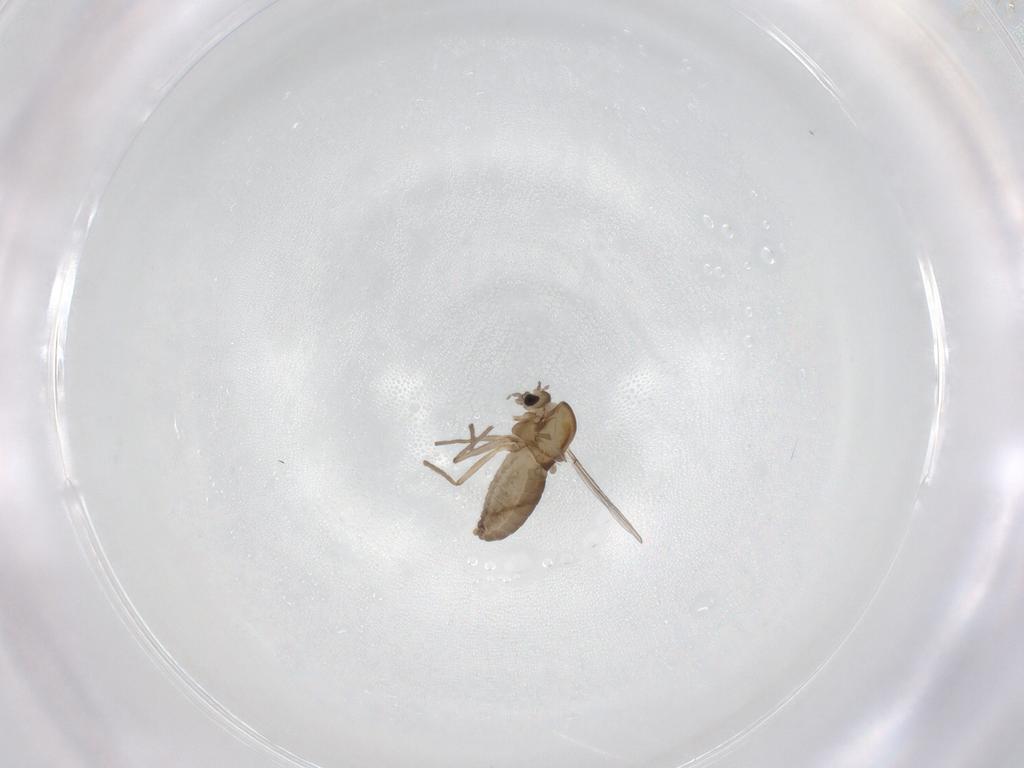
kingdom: Animalia
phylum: Arthropoda
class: Insecta
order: Diptera
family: Chironomidae
